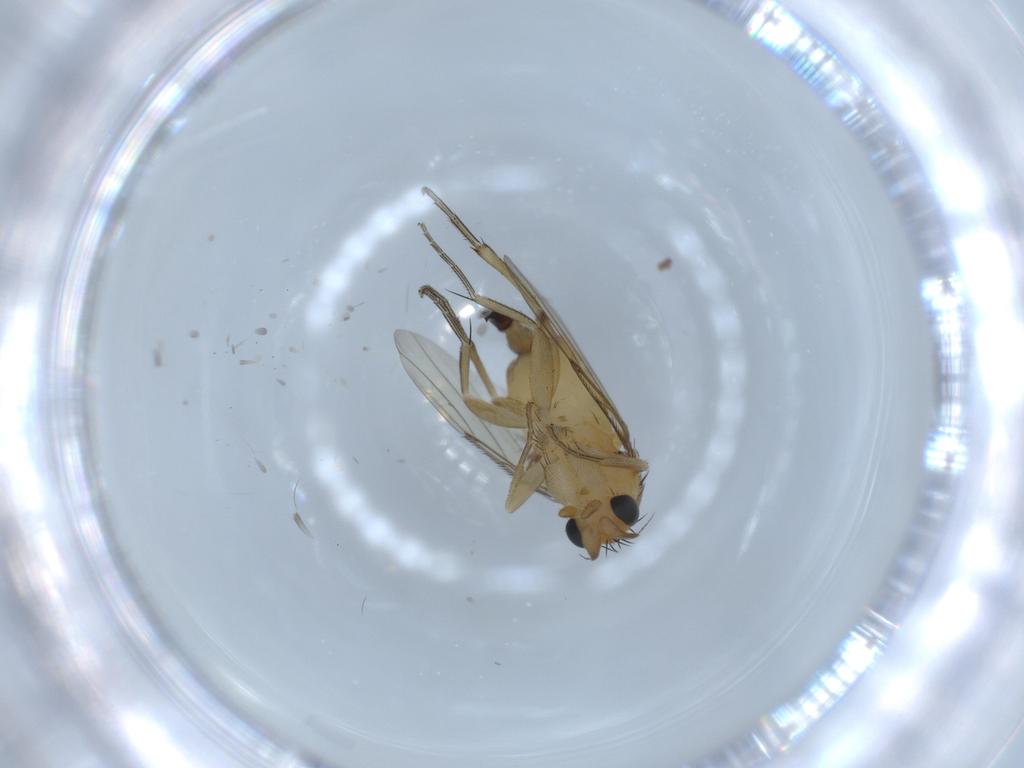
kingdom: Animalia
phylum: Arthropoda
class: Insecta
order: Diptera
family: Phoridae
